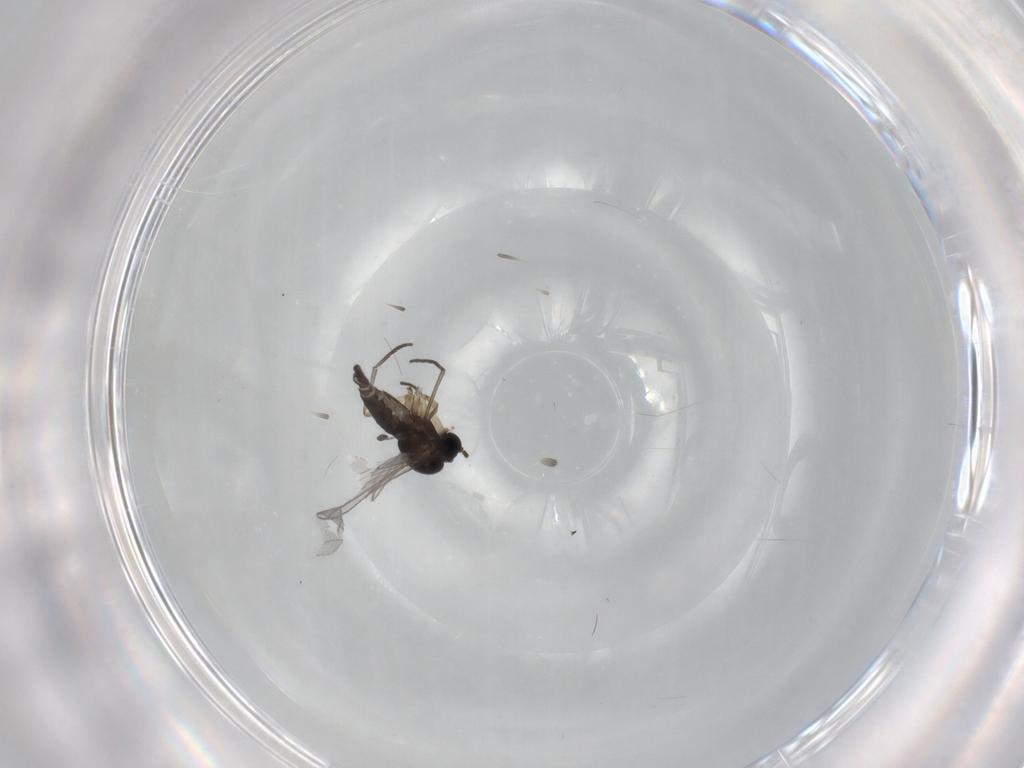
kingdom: Animalia
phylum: Arthropoda
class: Insecta
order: Diptera
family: Sciaridae
